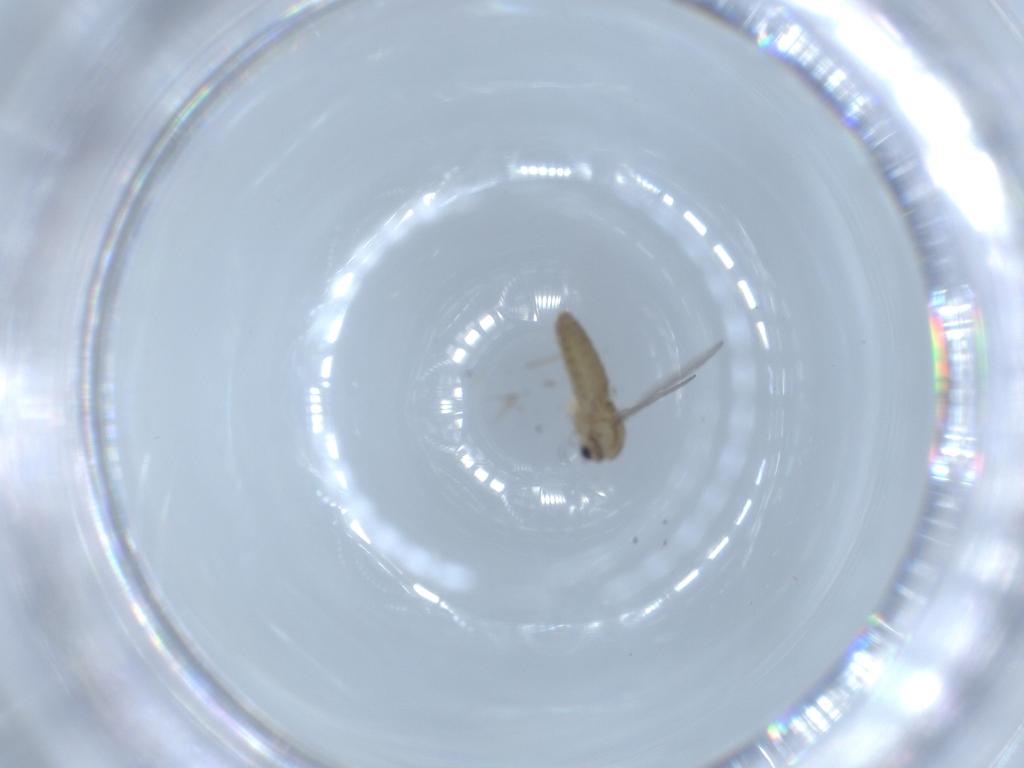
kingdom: Animalia
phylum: Arthropoda
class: Insecta
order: Diptera
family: Chironomidae
